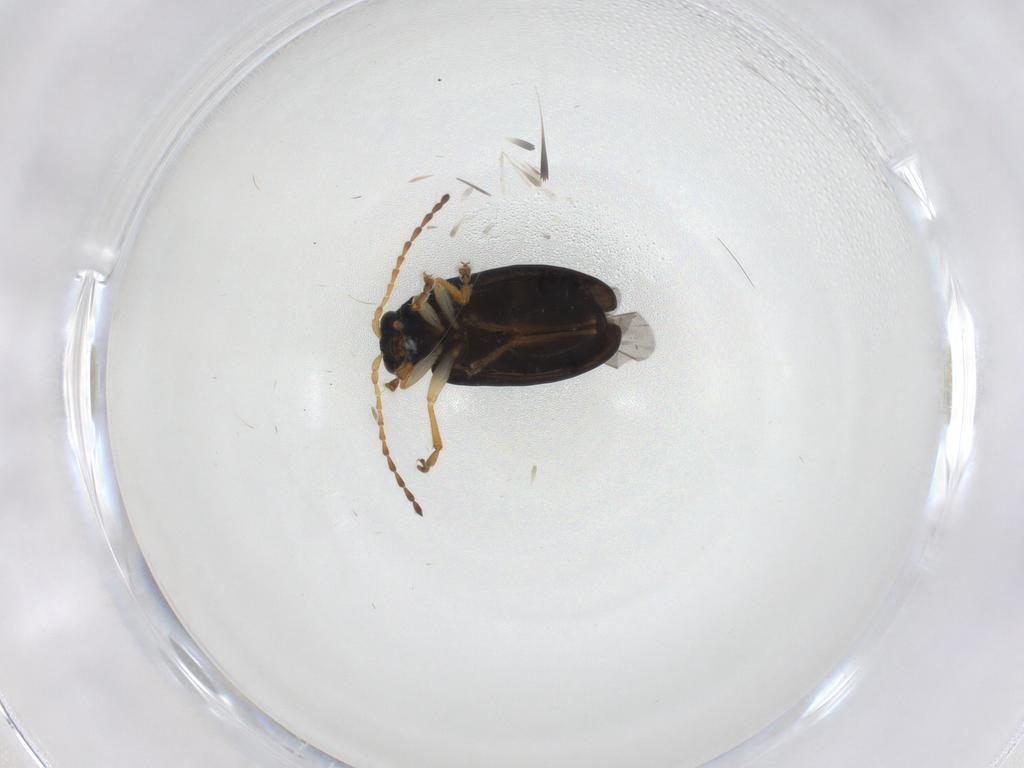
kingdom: Animalia
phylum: Arthropoda
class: Insecta
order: Coleoptera
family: Chrysomelidae
